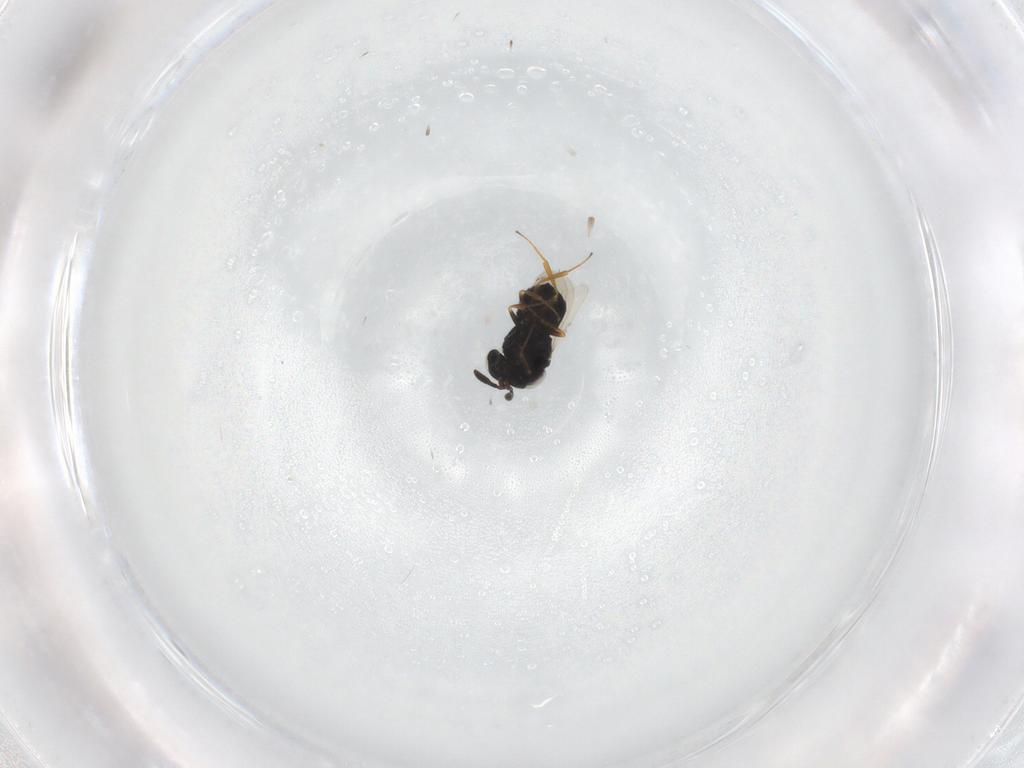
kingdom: Animalia
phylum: Arthropoda
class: Insecta
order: Hymenoptera
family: Scelionidae
